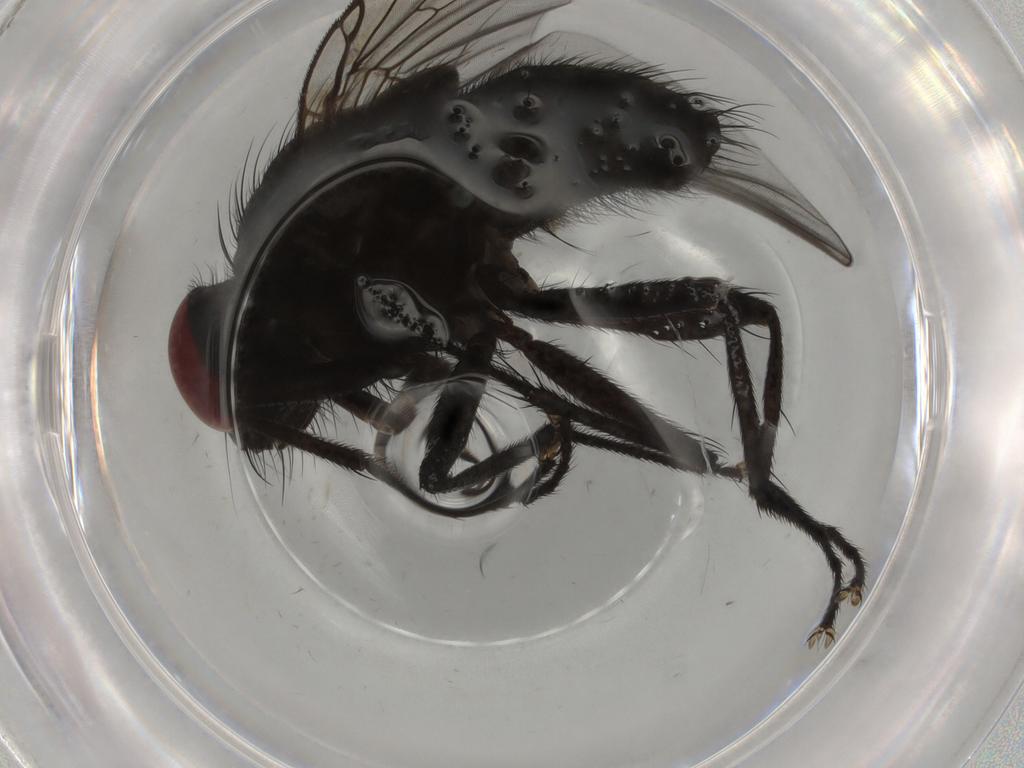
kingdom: Animalia
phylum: Arthropoda
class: Insecta
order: Diptera
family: Muscidae
